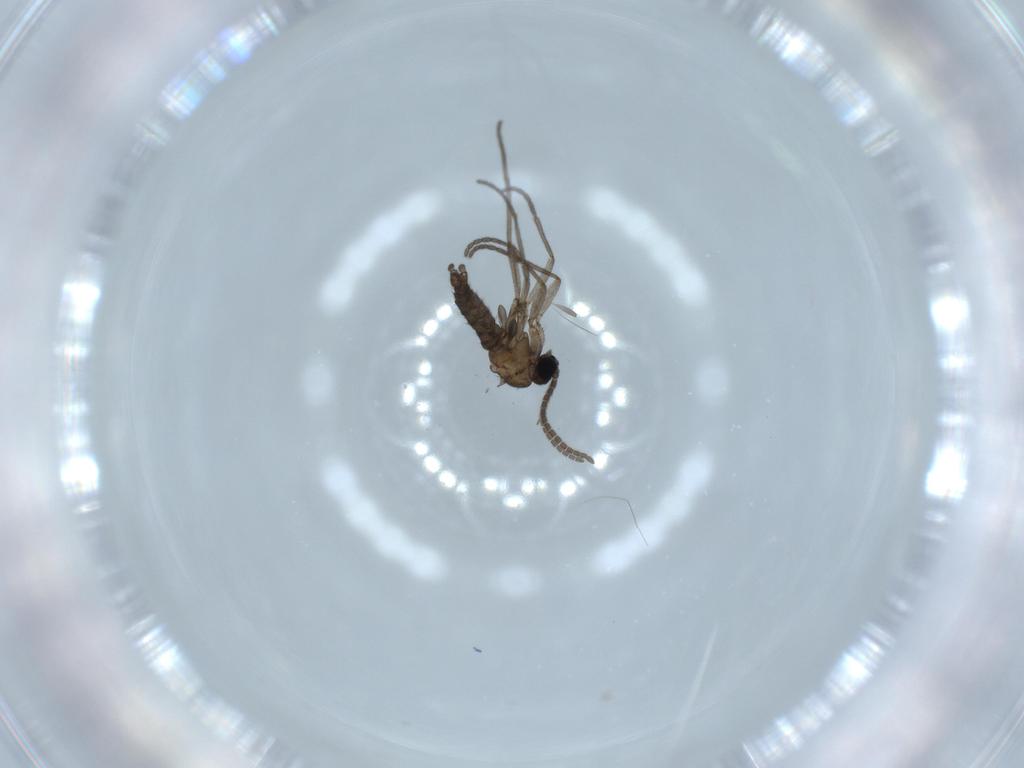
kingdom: Animalia
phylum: Arthropoda
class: Insecta
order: Diptera
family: Sciaridae
